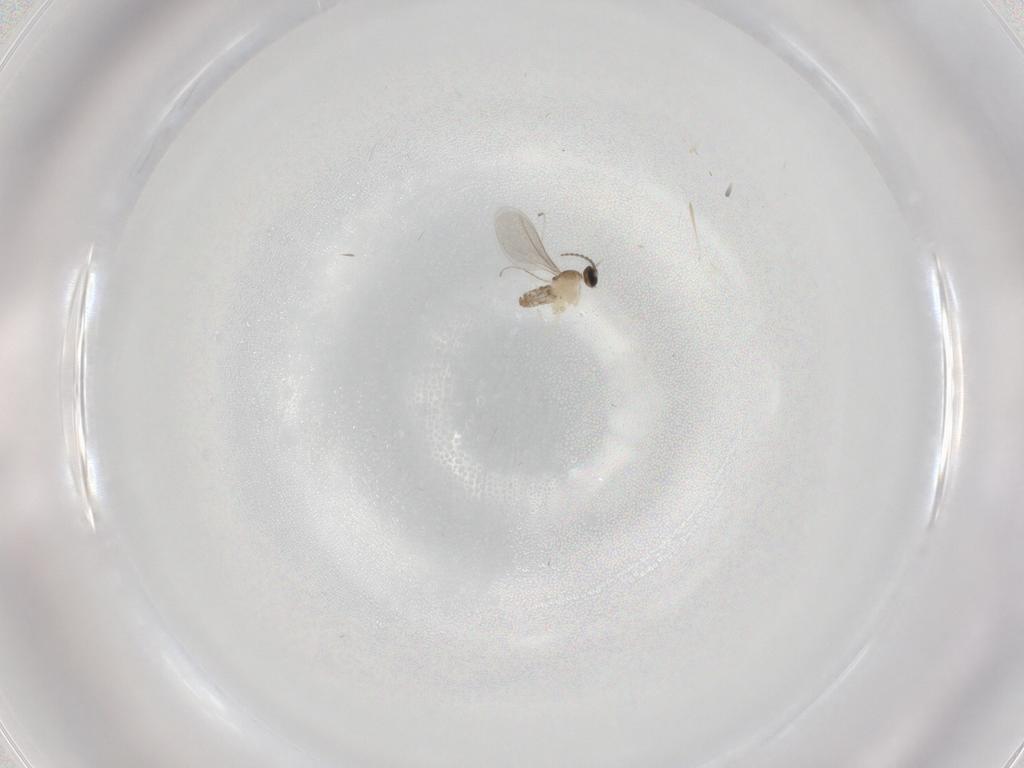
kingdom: Animalia
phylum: Arthropoda
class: Insecta
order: Diptera
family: Cecidomyiidae
